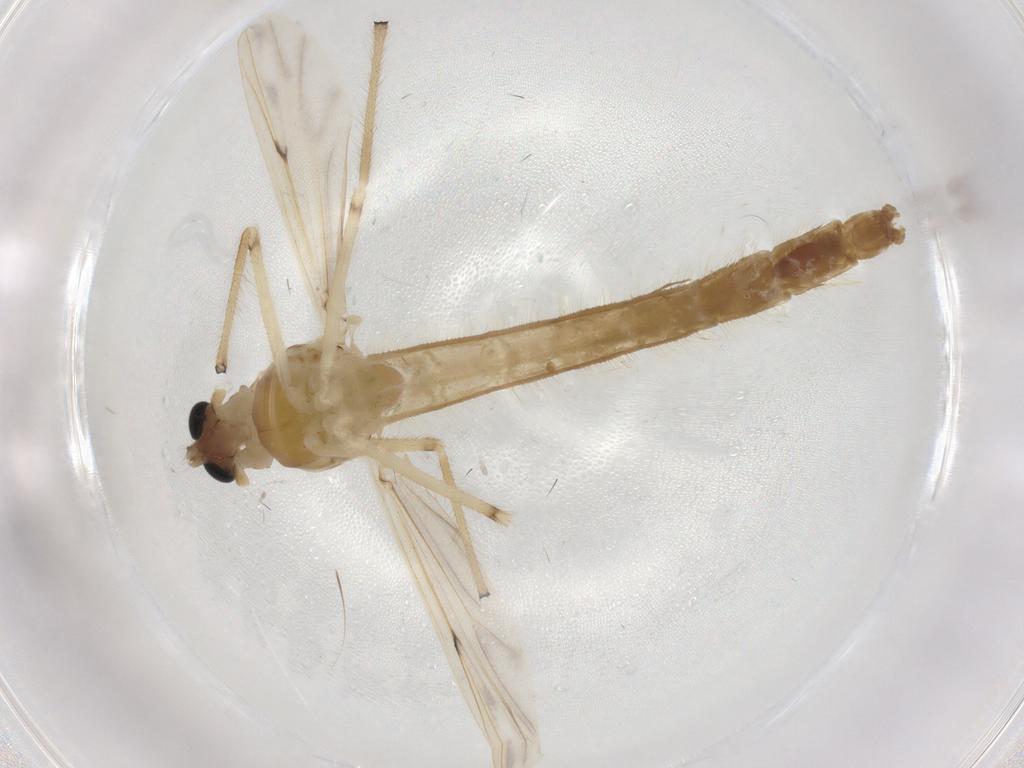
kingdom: Animalia
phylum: Arthropoda
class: Insecta
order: Diptera
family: Chironomidae
